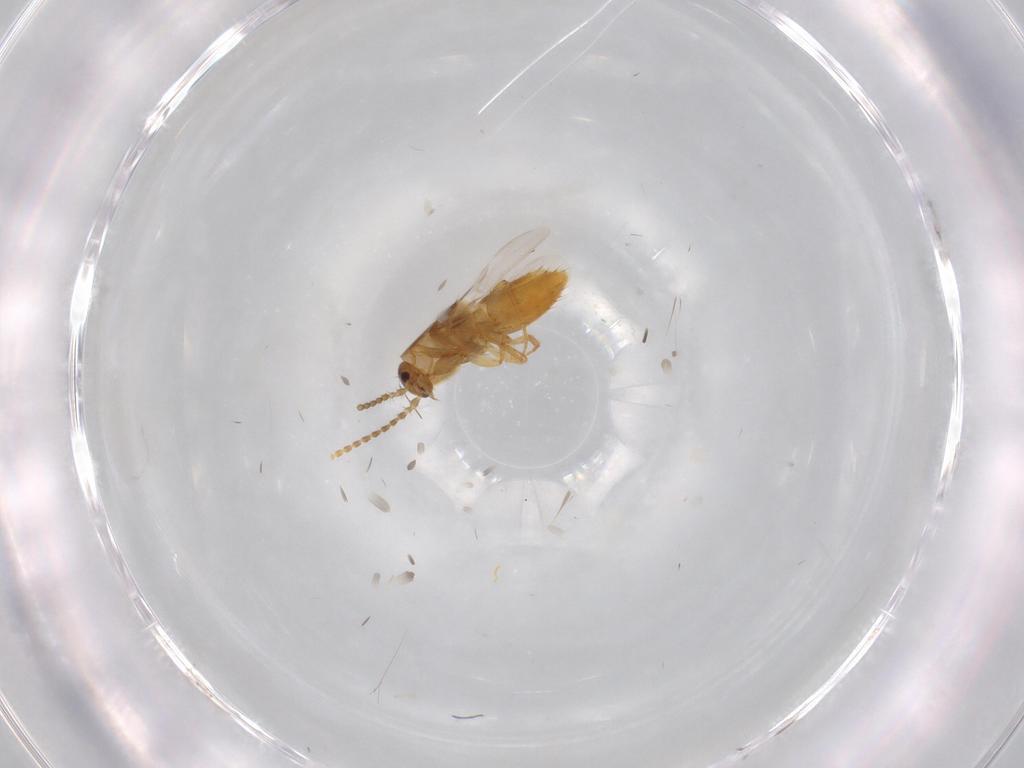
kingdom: Animalia
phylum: Arthropoda
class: Insecta
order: Coleoptera
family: Staphylinidae
